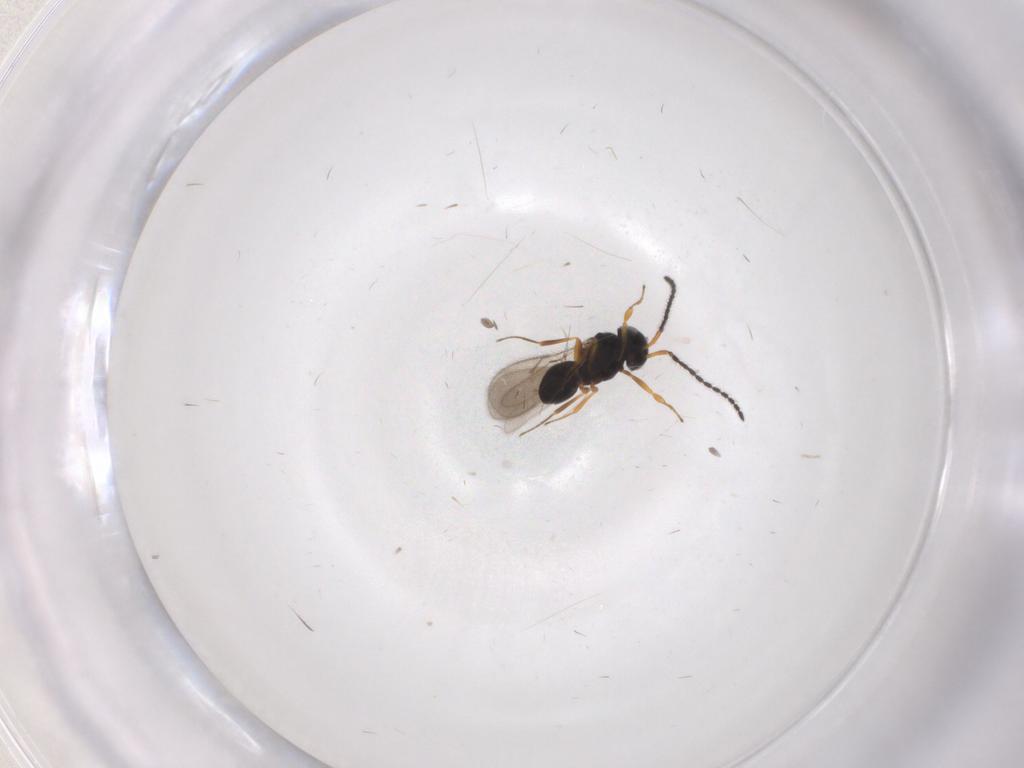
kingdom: Animalia
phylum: Arthropoda
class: Insecta
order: Hymenoptera
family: Scelionidae
